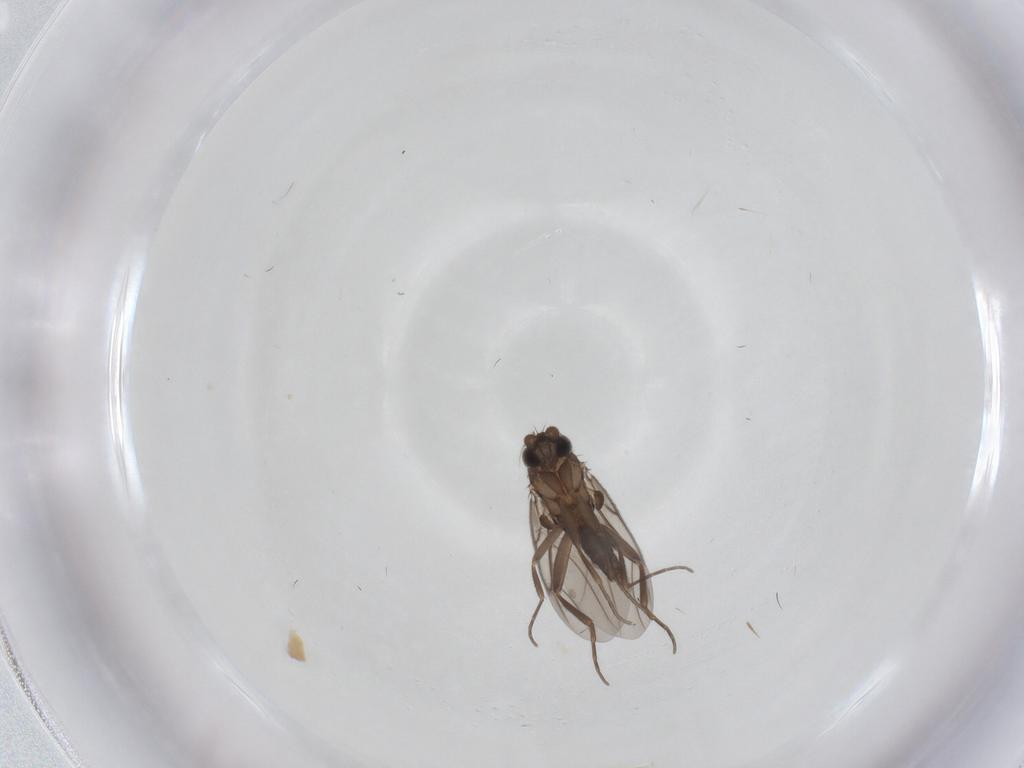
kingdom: Animalia
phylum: Arthropoda
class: Insecta
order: Diptera
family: Phoridae
